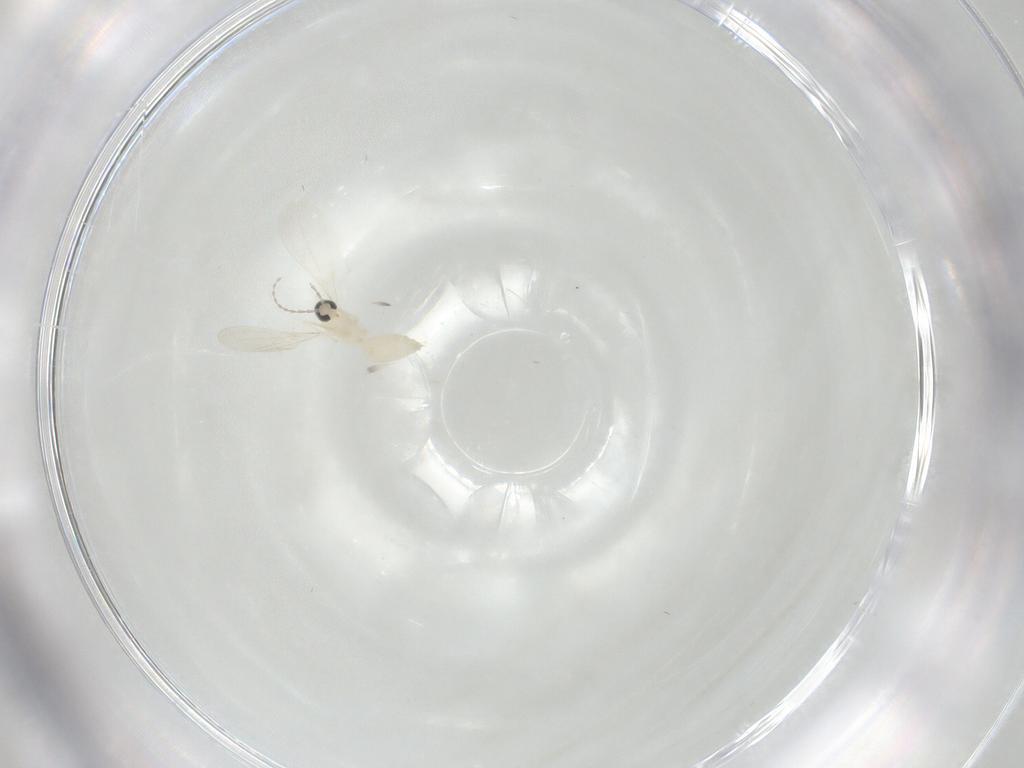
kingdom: Animalia
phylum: Arthropoda
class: Insecta
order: Diptera
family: Cecidomyiidae
